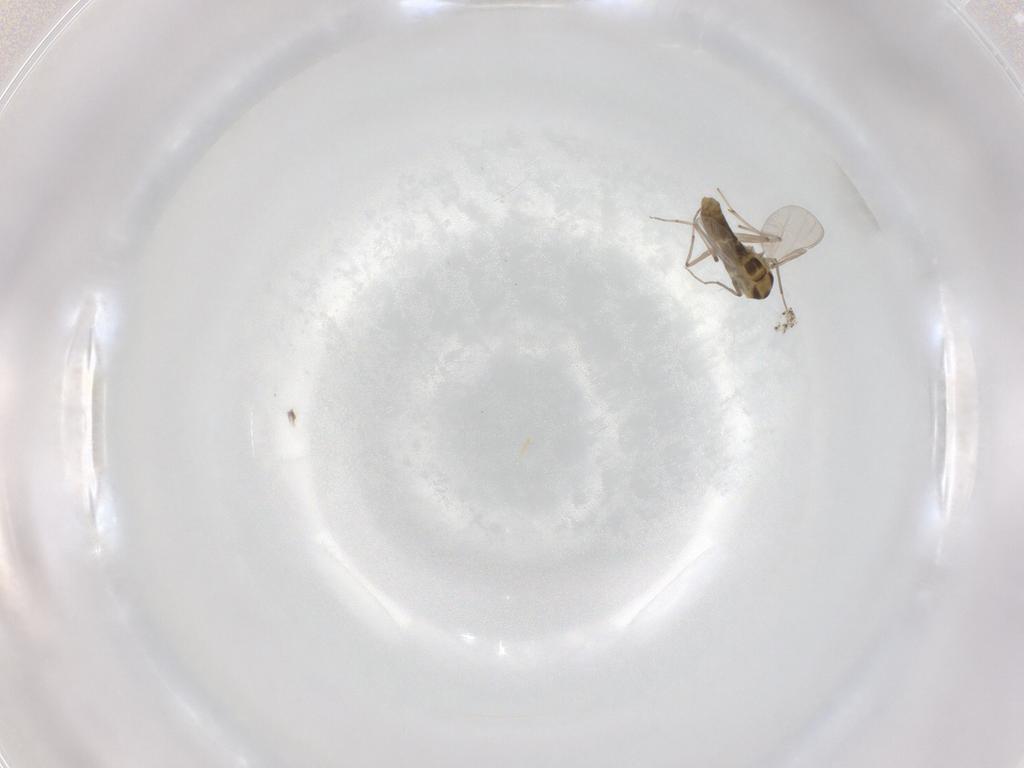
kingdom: Animalia
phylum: Arthropoda
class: Insecta
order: Diptera
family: Chironomidae
